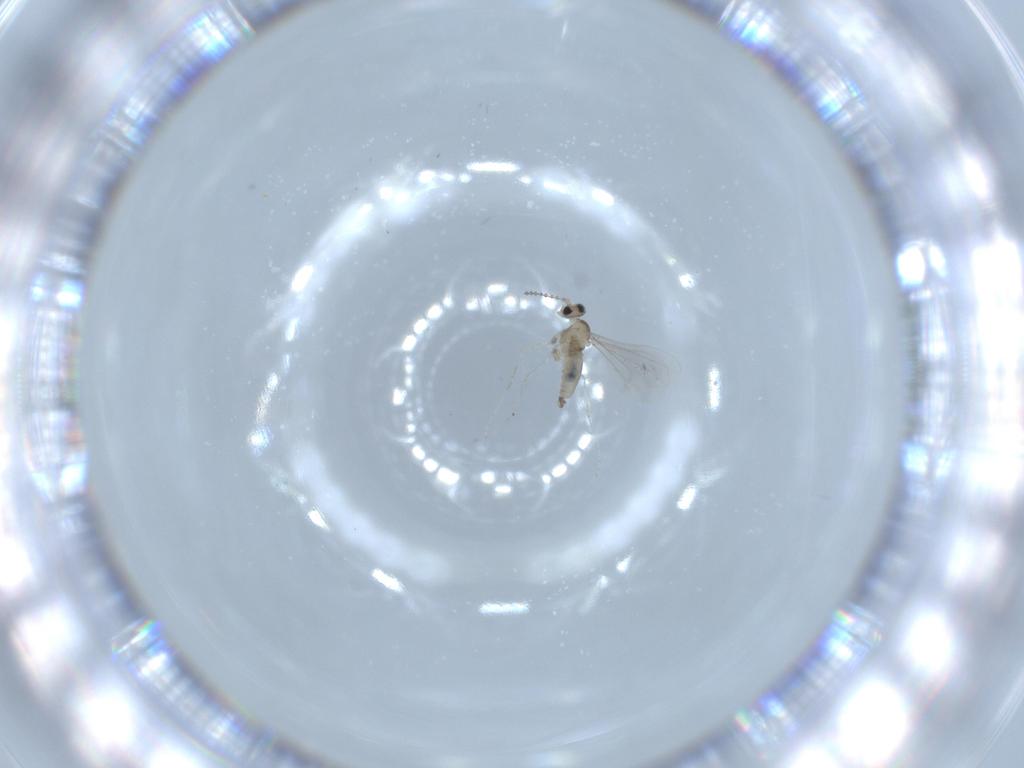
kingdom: Animalia
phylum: Arthropoda
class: Insecta
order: Diptera
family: Cecidomyiidae
